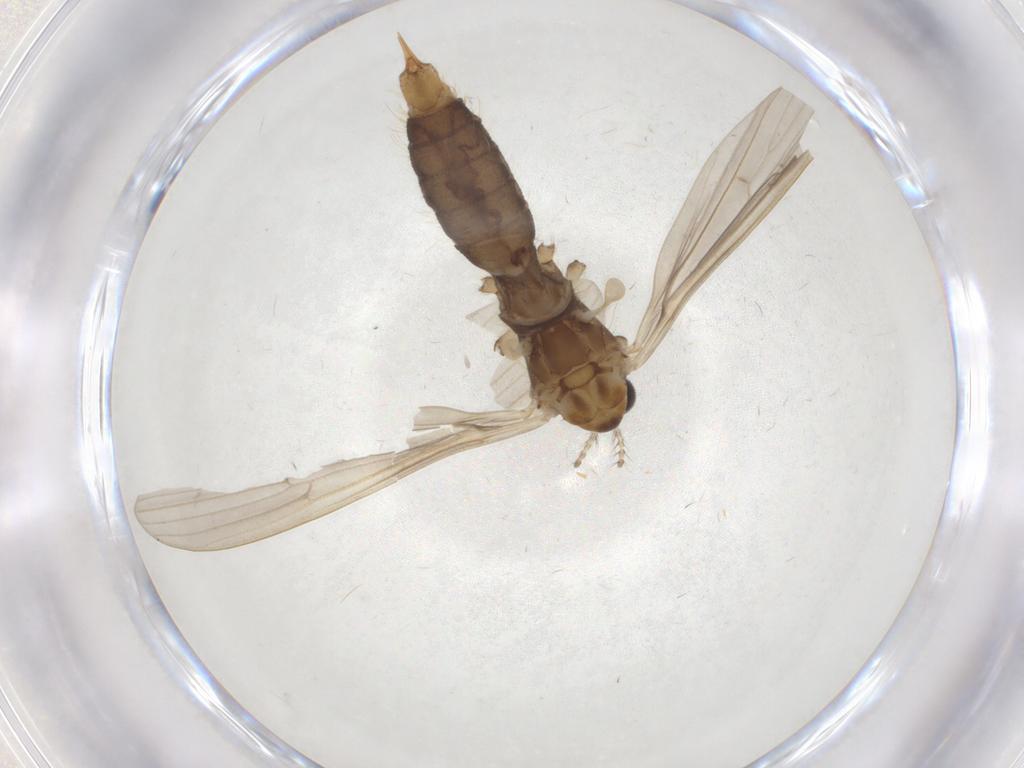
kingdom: Animalia
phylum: Arthropoda
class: Insecta
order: Diptera
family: Limoniidae
